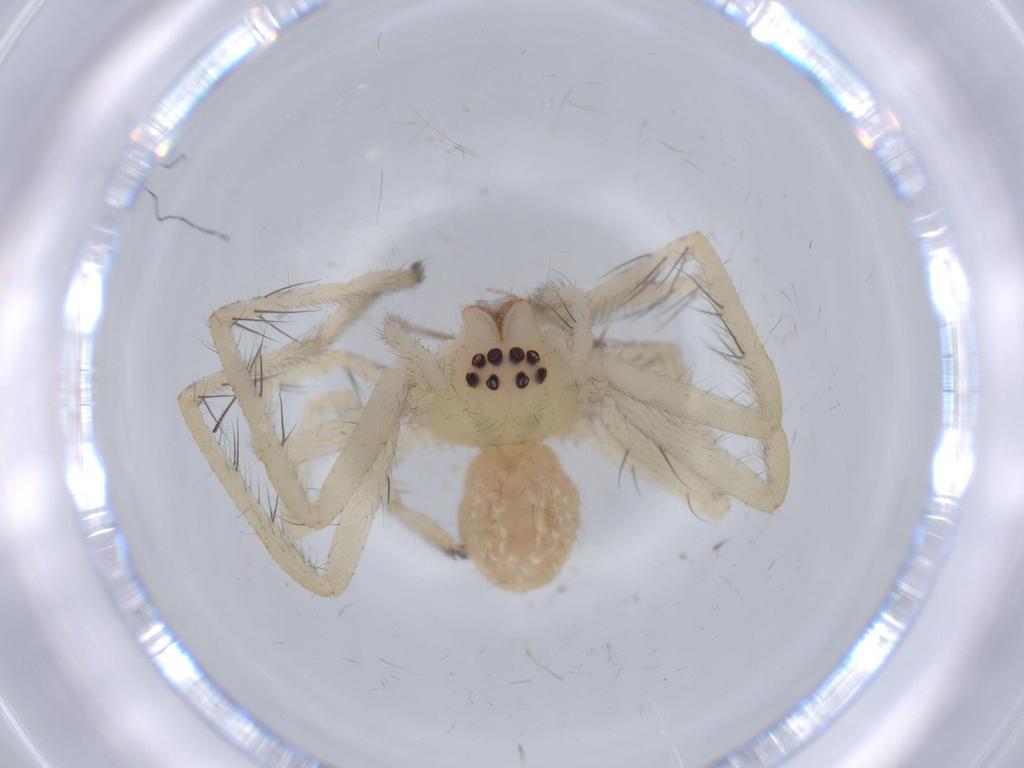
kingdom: Animalia
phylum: Arthropoda
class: Arachnida
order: Araneae
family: Sparassidae
